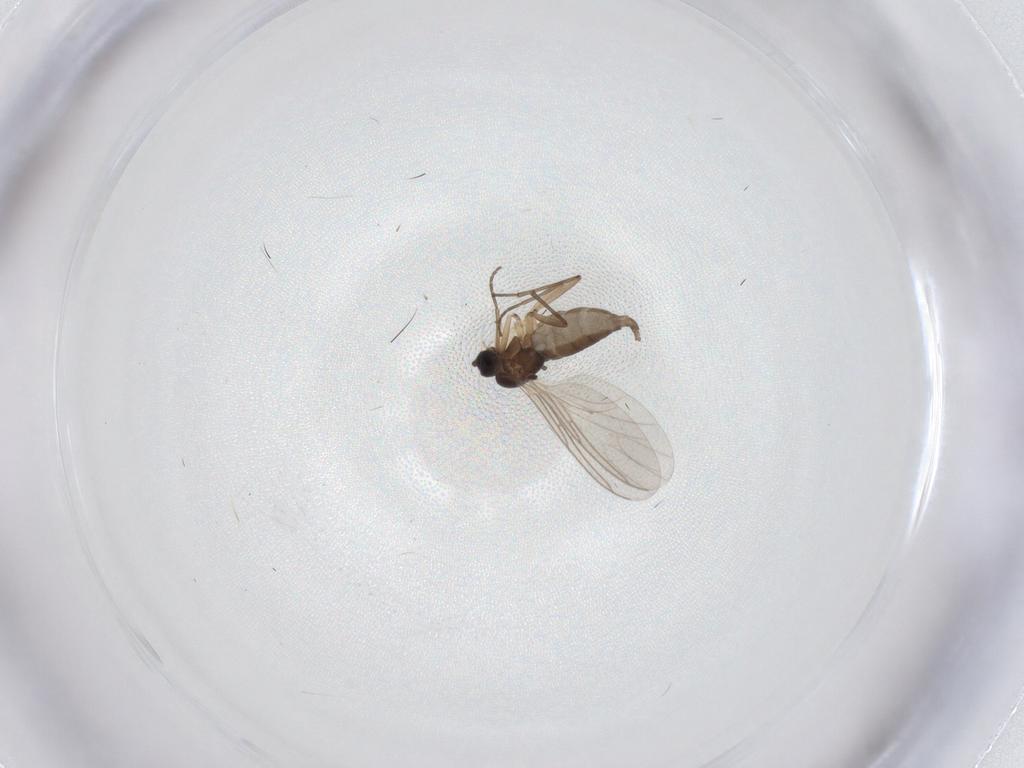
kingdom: Animalia
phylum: Arthropoda
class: Insecta
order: Diptera
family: Sciaridae
